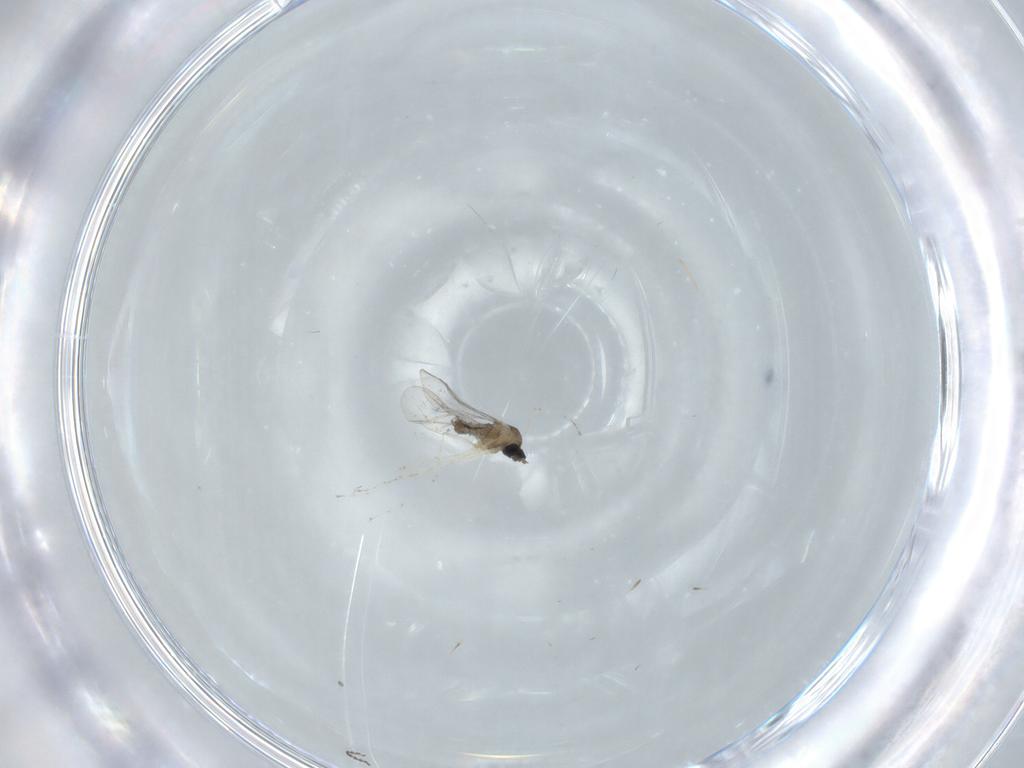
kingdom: Animalia
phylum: Arthropoda
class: Insecta
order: Diptera
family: Cecidomyiidae
